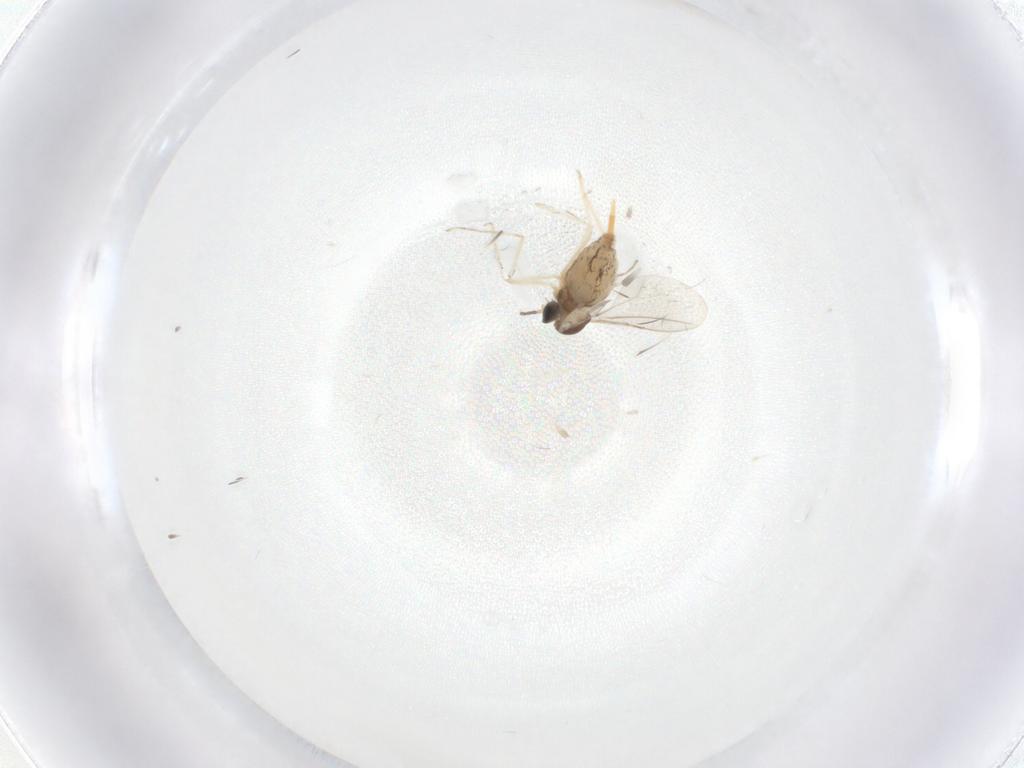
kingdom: Animalia
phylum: Arthropoda
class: Insecta
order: Diptera
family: Cecidomyiidae
